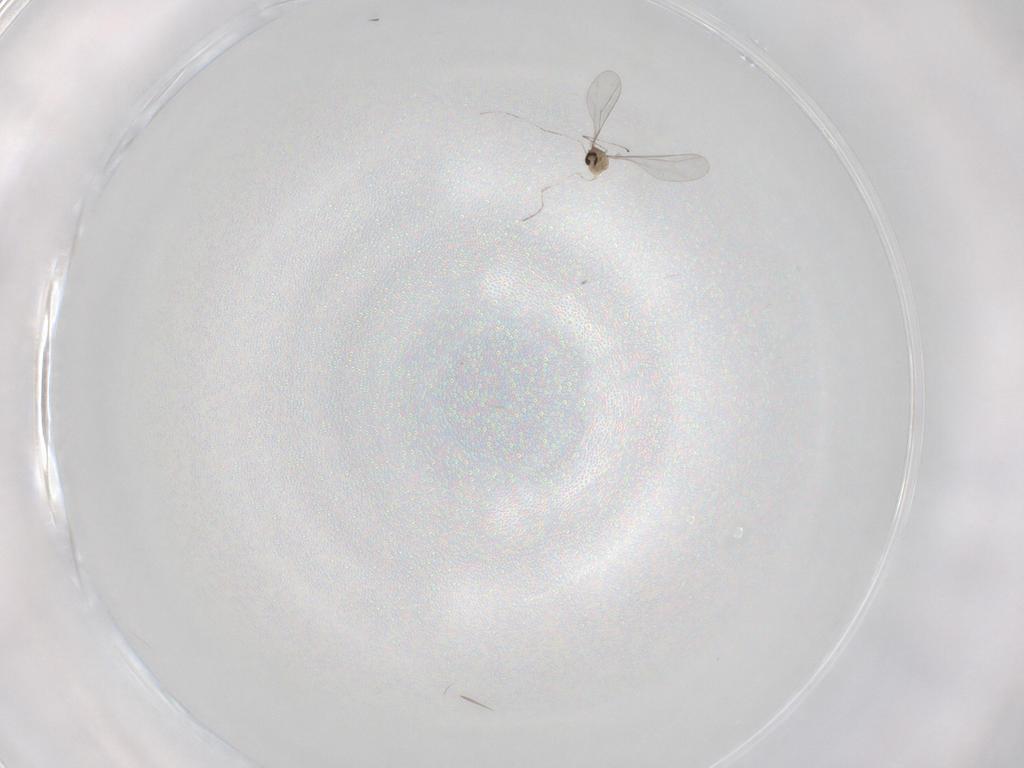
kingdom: Animalia
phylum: Arthropoda
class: Insecta
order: Diptera
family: Cecidomyiidae
